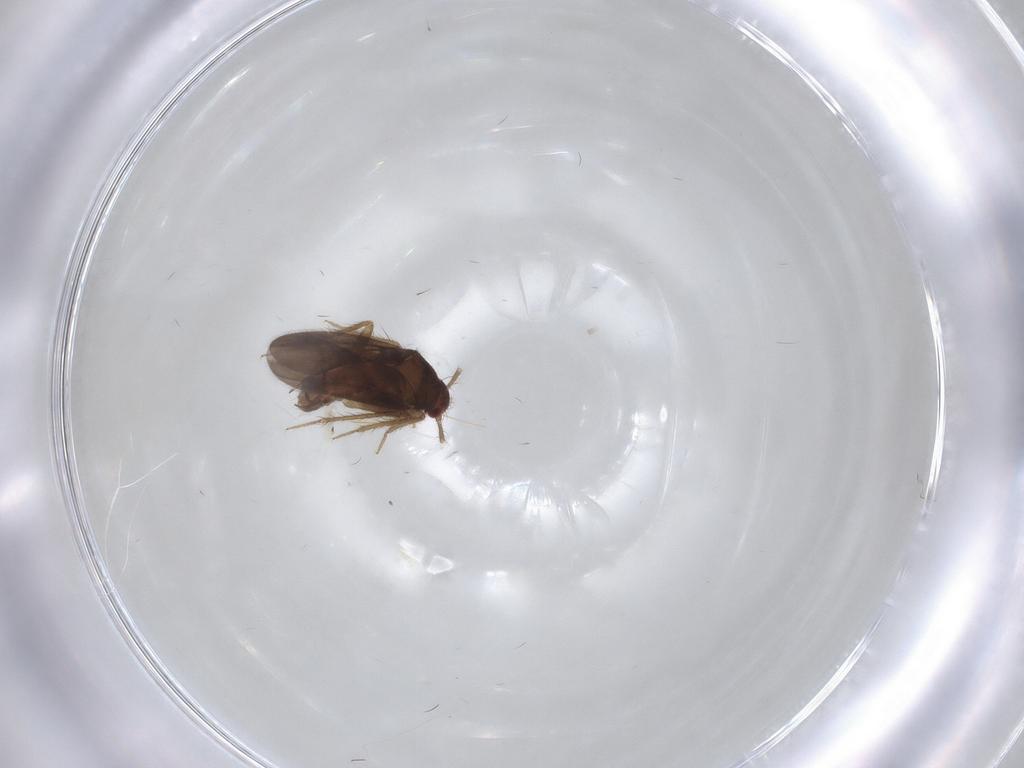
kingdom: Animalia
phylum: Arthropoda
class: Insecta
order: Hemiptera
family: Ceratocombidae
